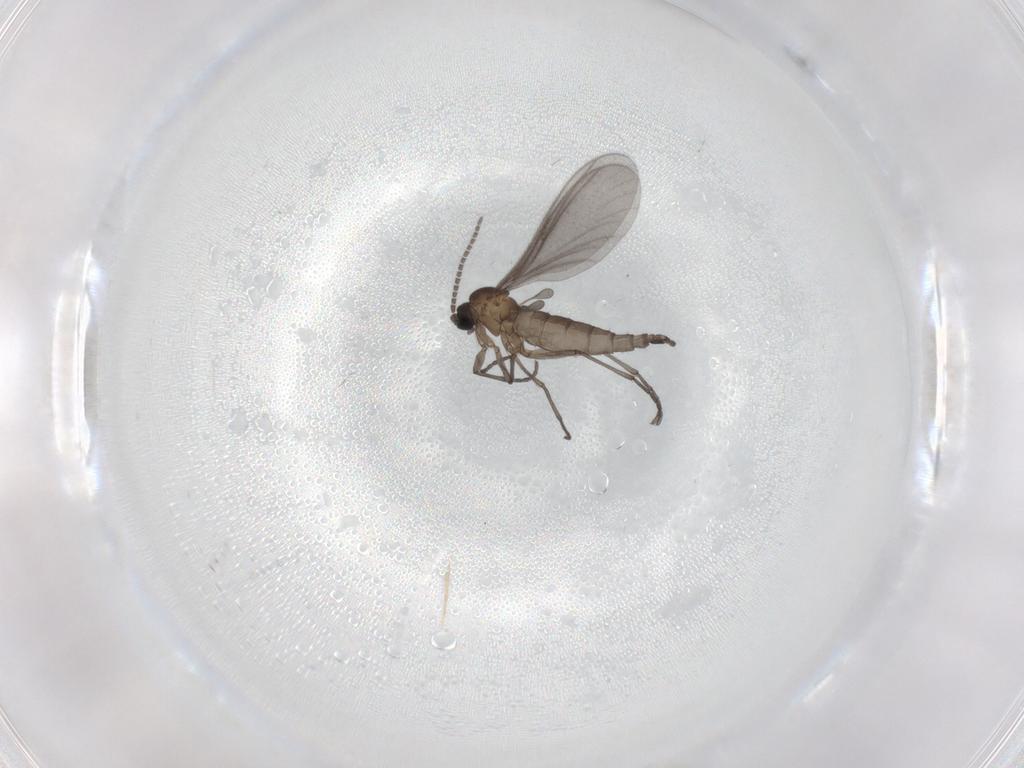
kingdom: Animalia
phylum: Arthropoda
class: Insecta
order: Diptera
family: Sciaridae
